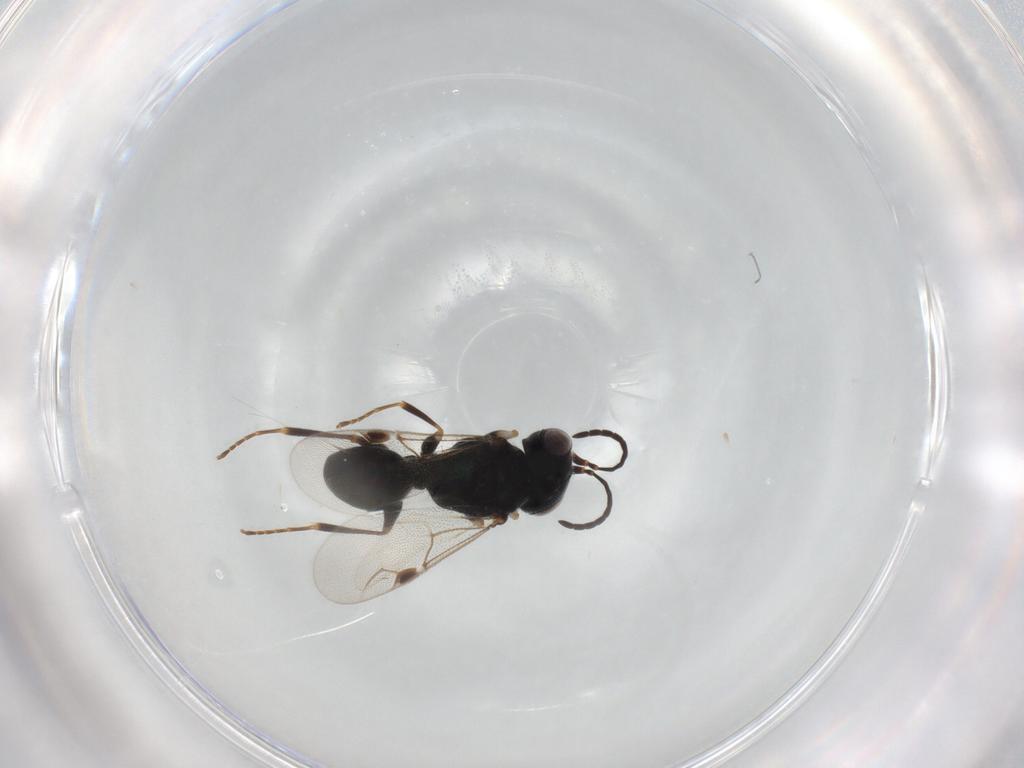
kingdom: Animalia
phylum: Arthropoda
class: Insecta
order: Hymenoptera
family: Dryinidae
